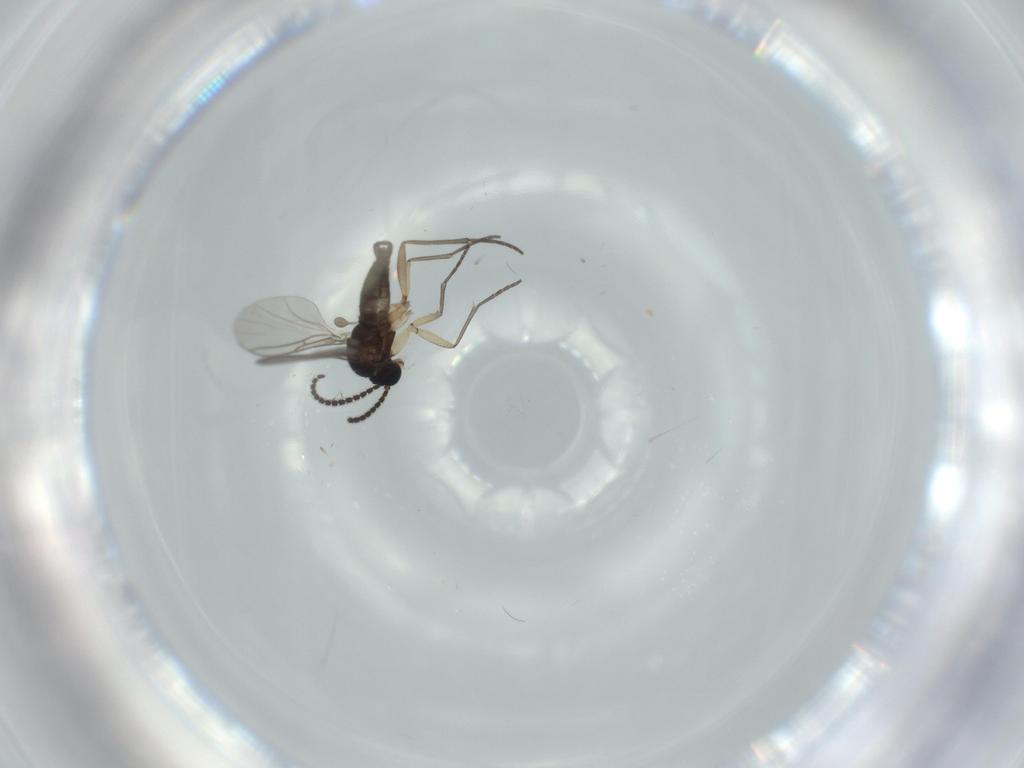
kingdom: Animalia
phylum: Arthropoda
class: Insecta
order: Diptera
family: Sciaridae
